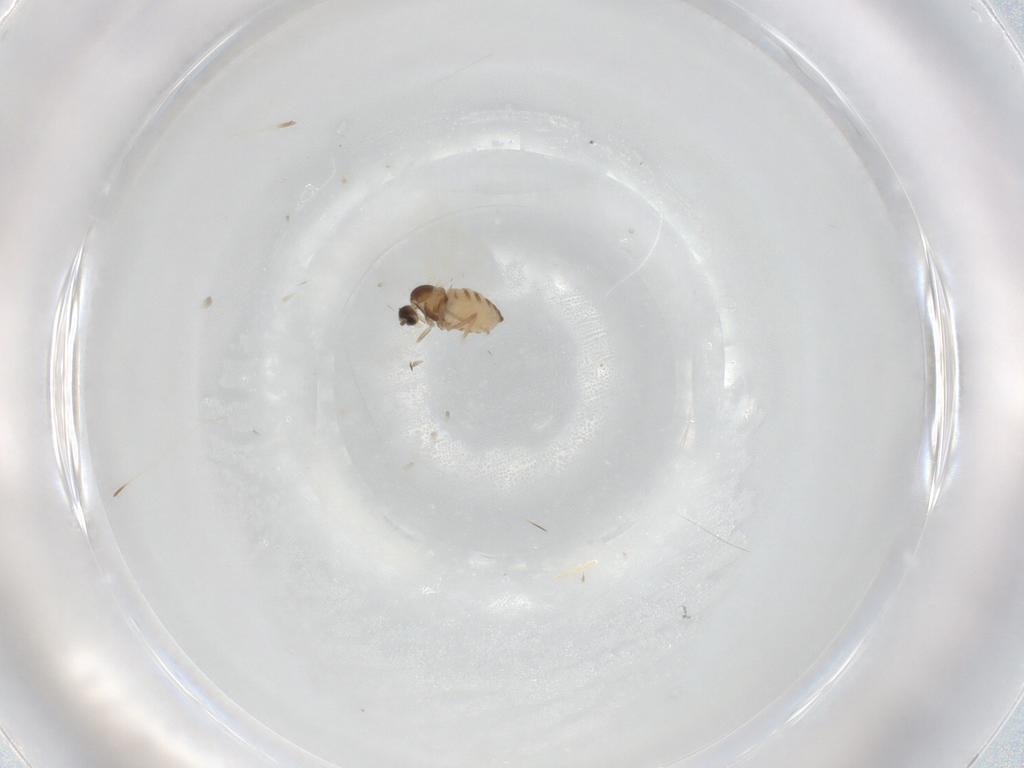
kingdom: Animalia
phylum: Arthropoda
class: Insecta
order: Diptera
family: Cecidomyiidae
